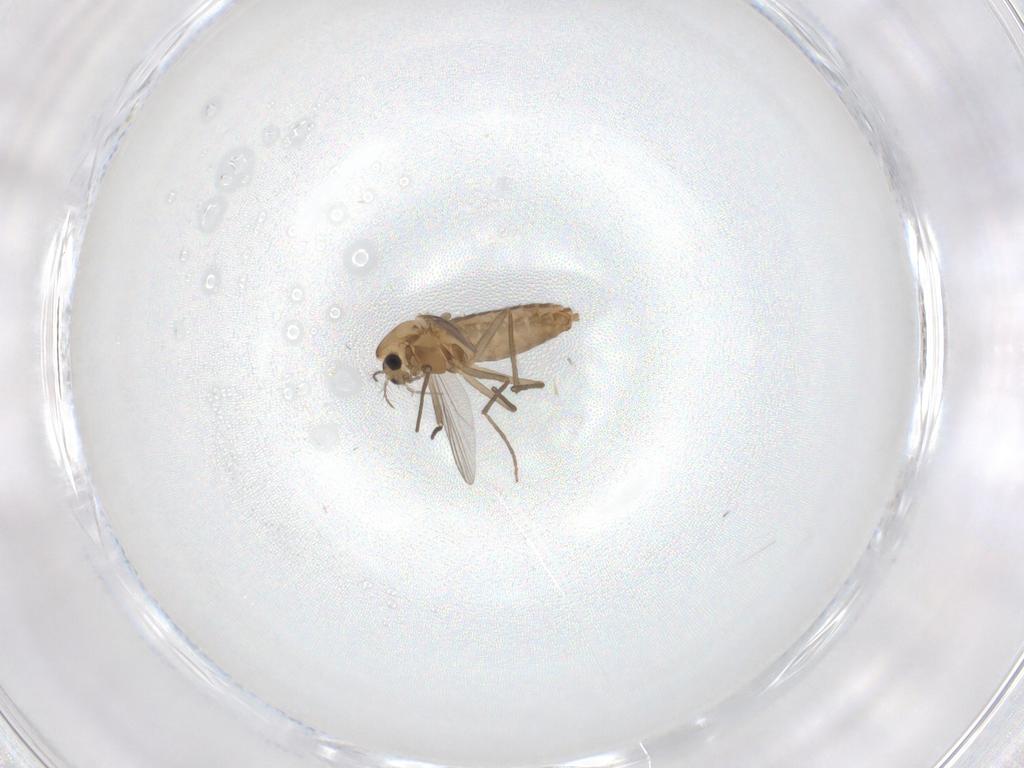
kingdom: Animalia
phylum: Arthropoda
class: Insecta
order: Diptera
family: Chironomidae
